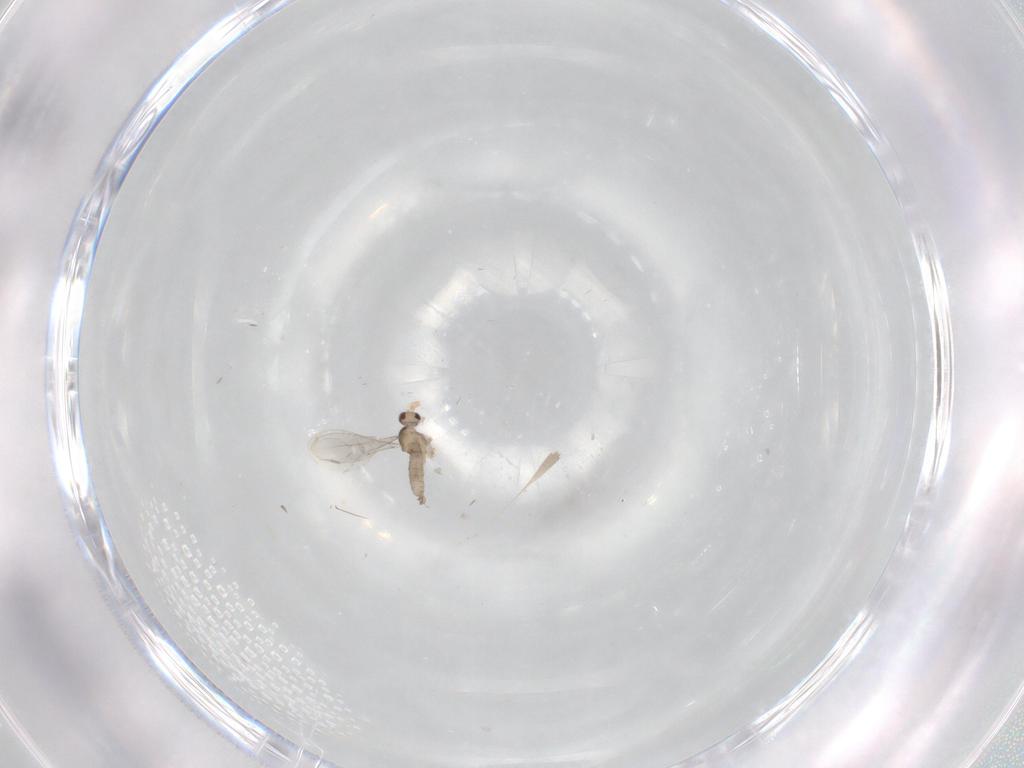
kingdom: Animalia
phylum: Arthropoda
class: Insecta
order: Diptera
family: Cecidomyiidae
